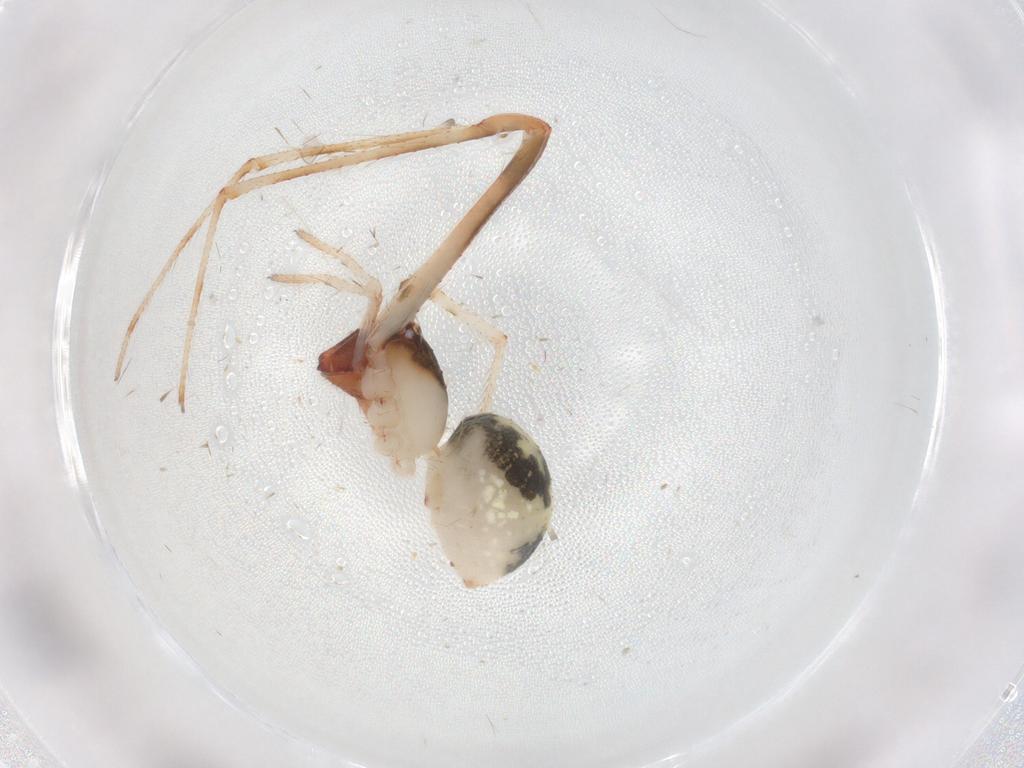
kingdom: Animalia
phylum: Arthropoda
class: Arachnida
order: Araneae
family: Theridiidae
